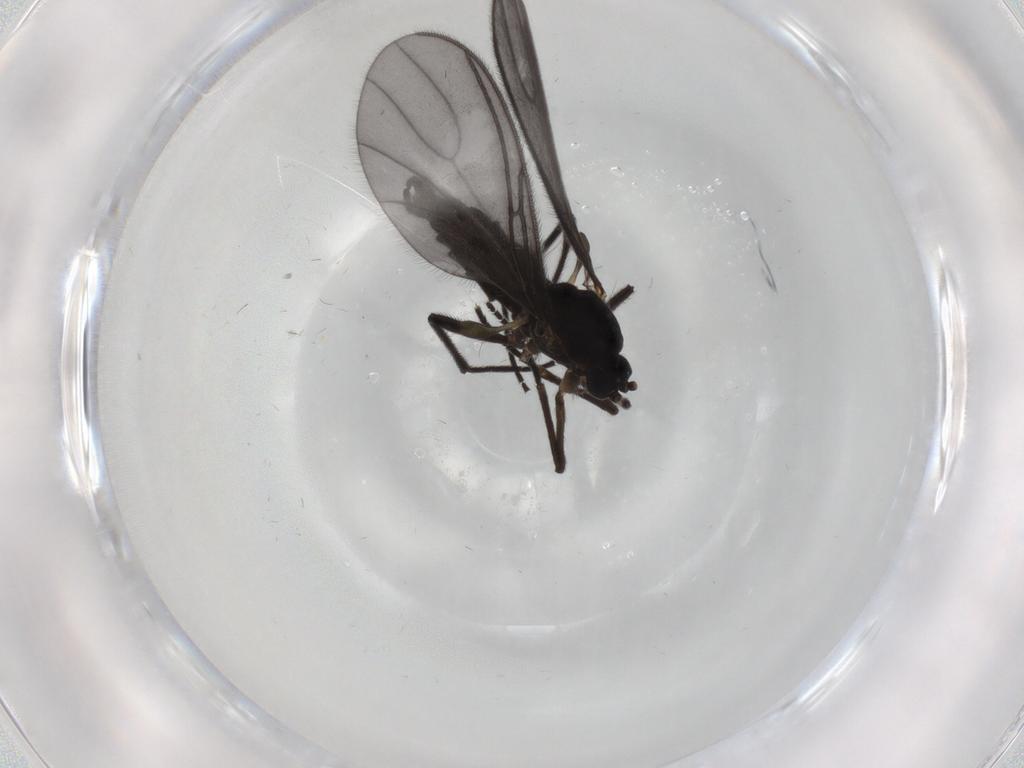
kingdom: Animalia
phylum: Arthropoda
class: Insecta
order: Diptera
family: Sciaridae
